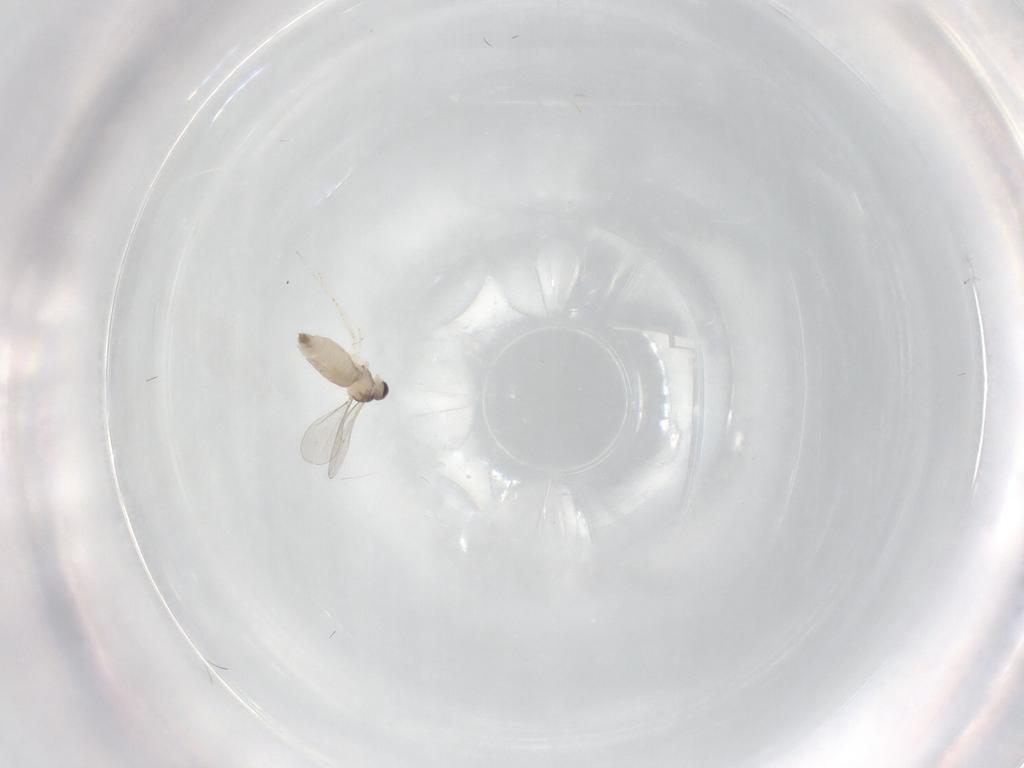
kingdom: Animalia
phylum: Arthropoda
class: Insecta
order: Diptera
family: Cecidomyiidae
